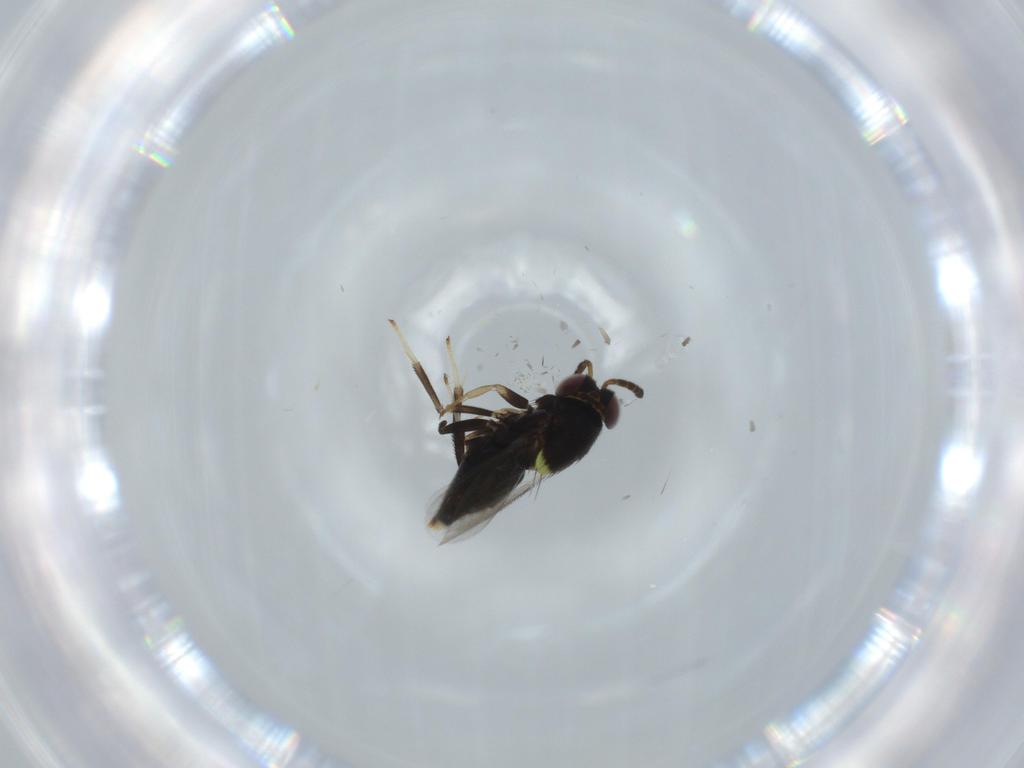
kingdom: Animalia
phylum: Arthropoda
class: Insecta
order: Hymenoptera
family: Aphelinidae
